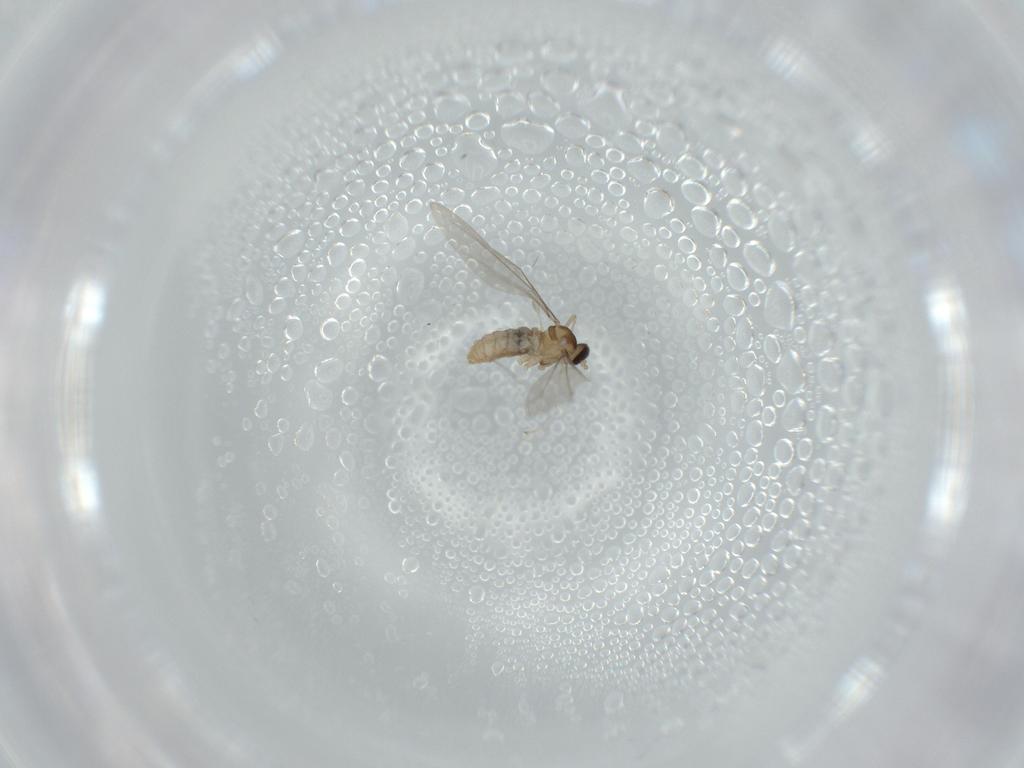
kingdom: Animalia
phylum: Arthropoda
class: Insecta
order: Diptera
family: Cecidomyiidae
